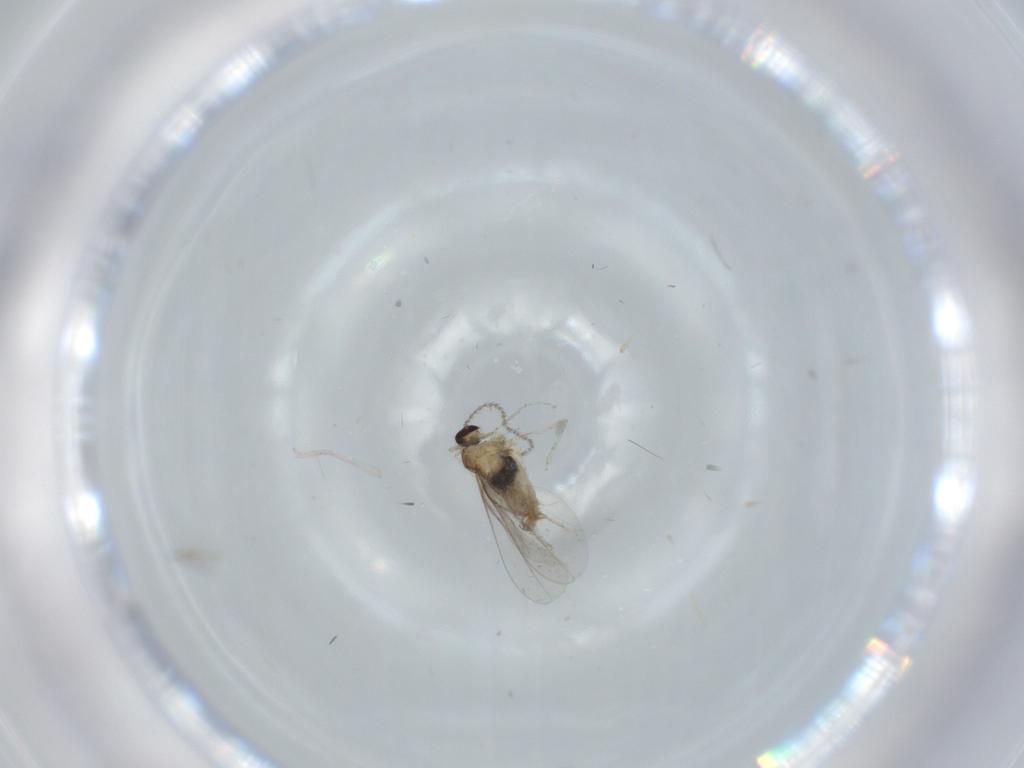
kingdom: Animalia
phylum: Arthropoda
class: Insecta
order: Diptera
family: Cecidomyiidae
